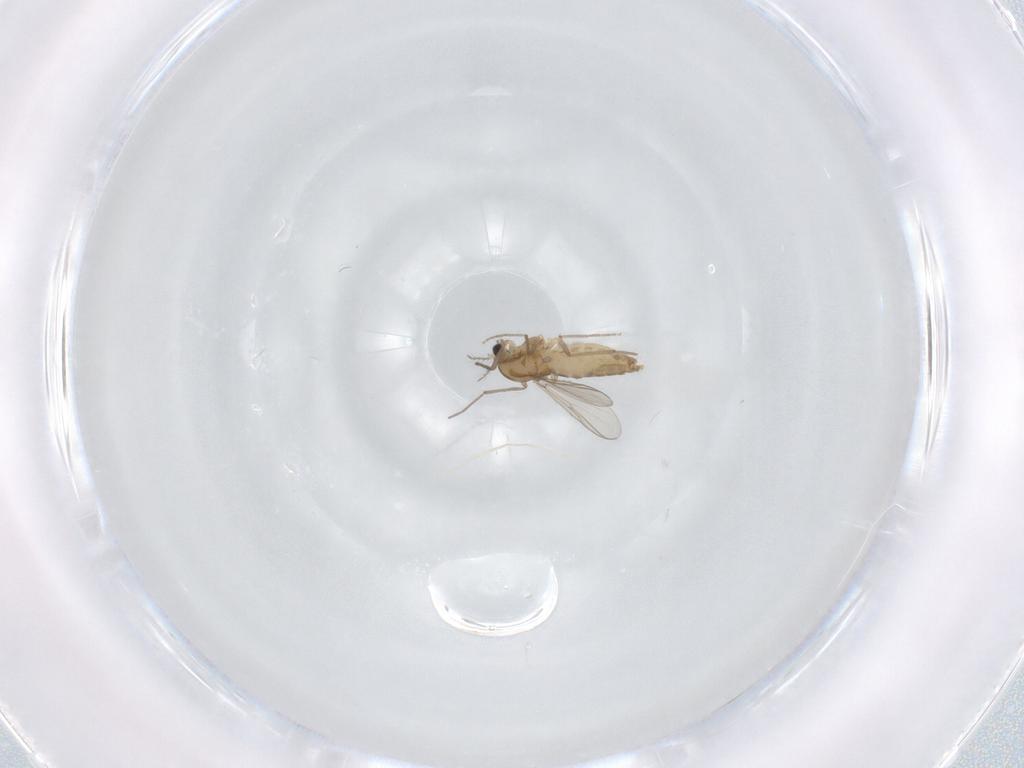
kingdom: Animalia
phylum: Arthropoda
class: Insecta
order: Diptera
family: Chironomidae
